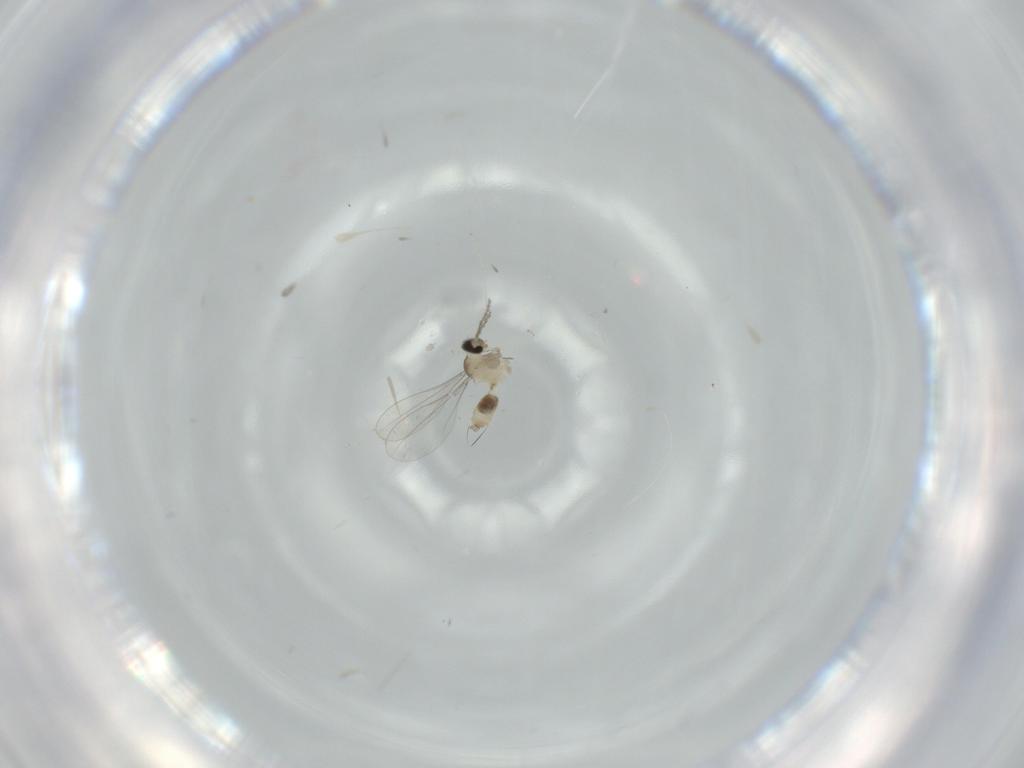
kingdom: Animalia
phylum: Arthropoda
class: Insecta
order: Diptera
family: Cecidomyiidae
